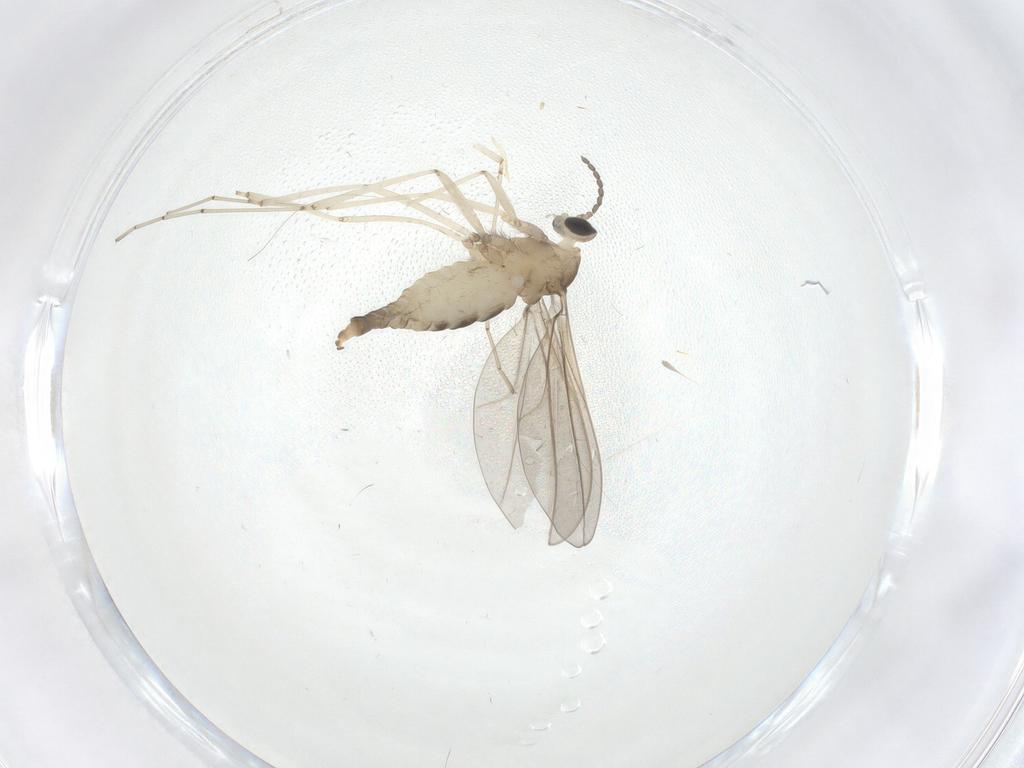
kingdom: Animalia
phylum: Arthropoda
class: Insecta
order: Diptera
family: Cecidomyiidae
